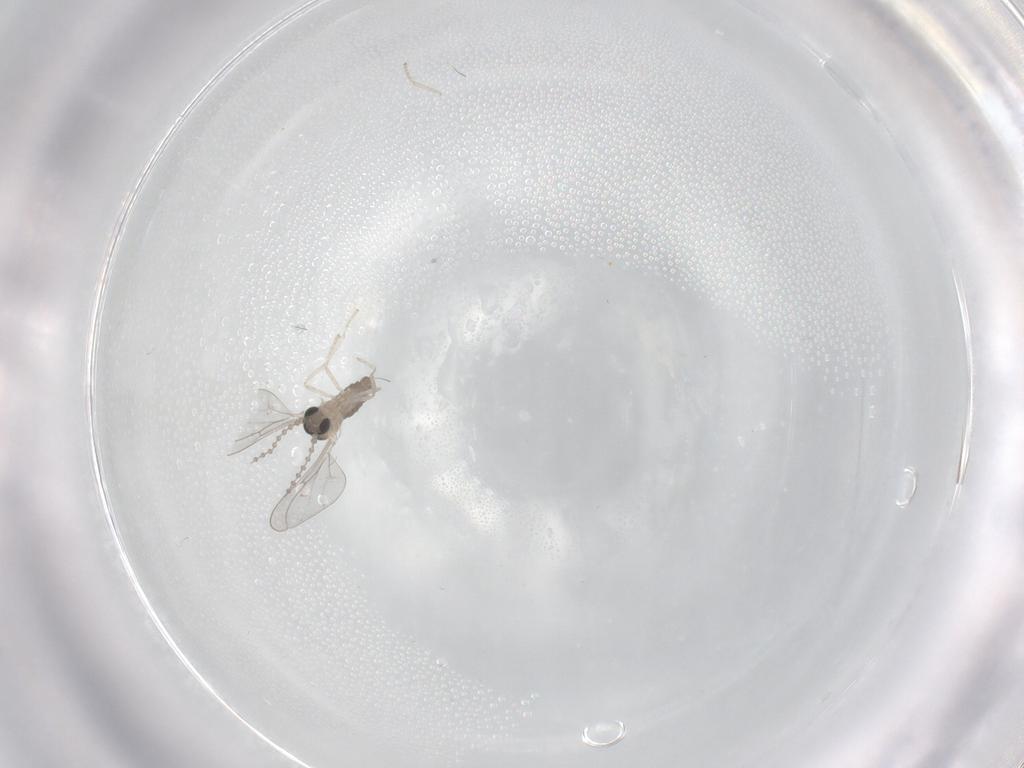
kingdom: Animalia
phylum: Arthropoda
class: Insecta
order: Diptera
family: Cecidomyiidae
